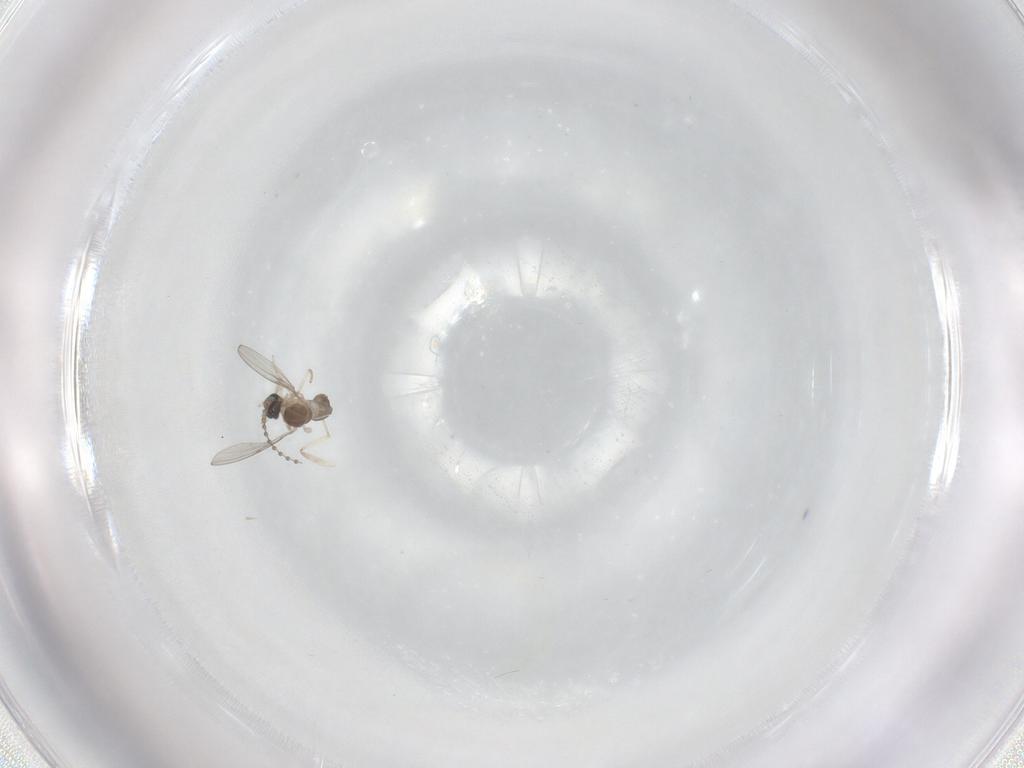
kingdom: Animalia
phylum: Arthropoda
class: Insecta
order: Diptera
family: Cecidomyiidae
